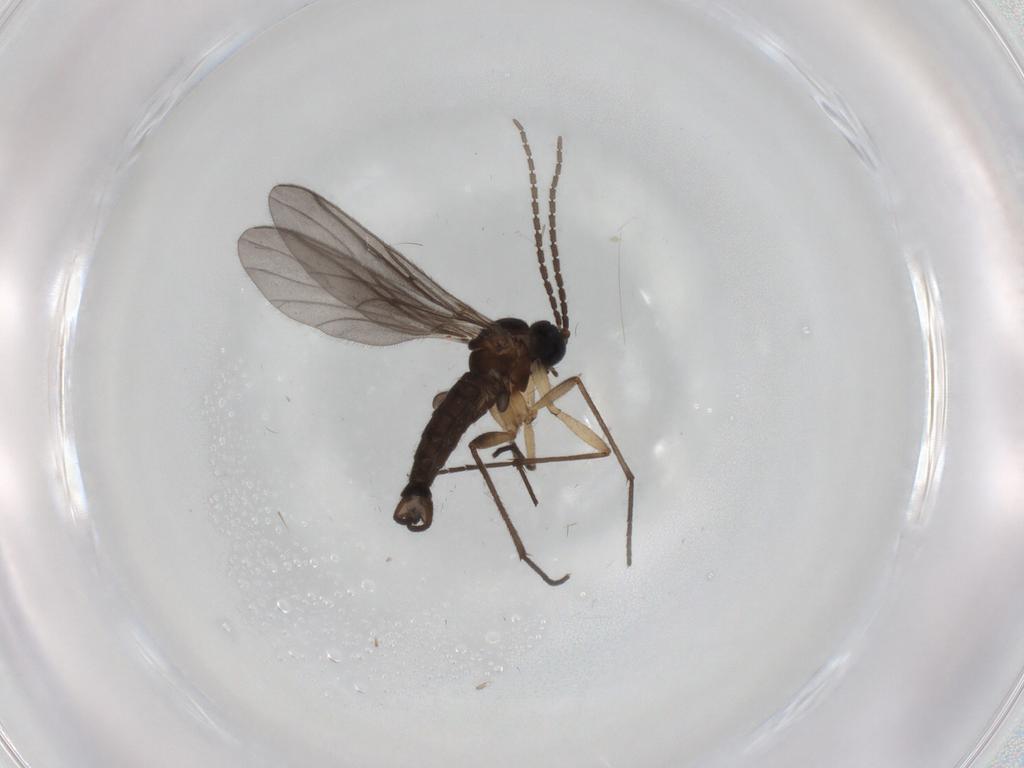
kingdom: Animalia
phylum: Arthropoda
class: Insecta
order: Diptera
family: Sciaridae
